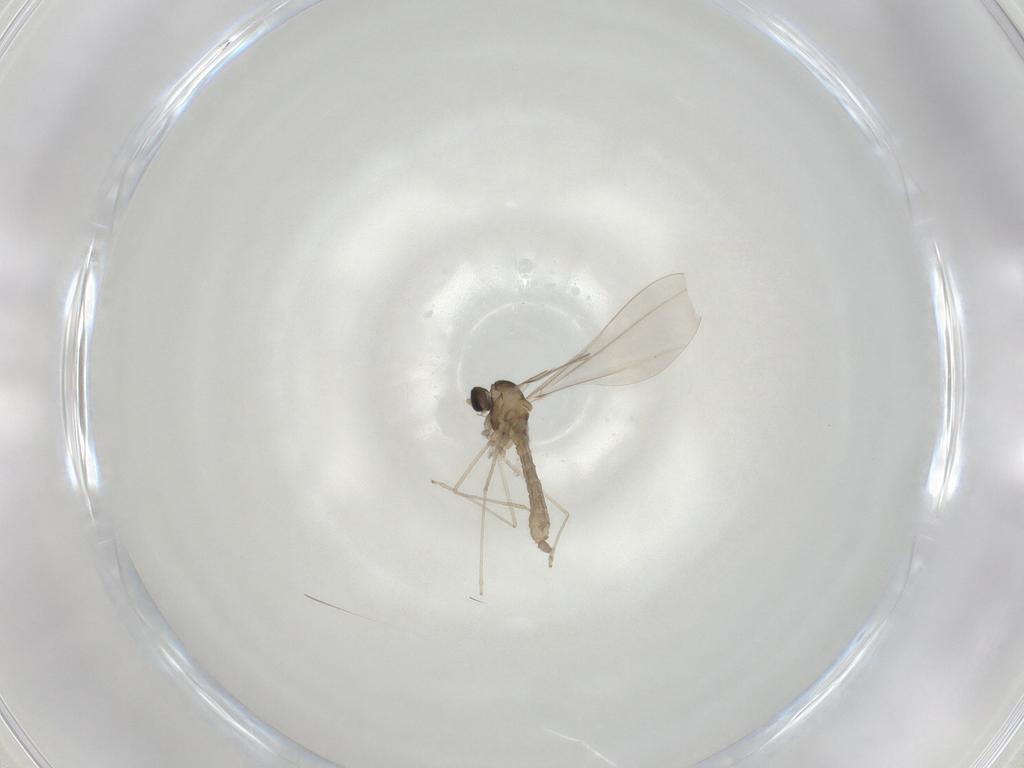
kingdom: Animalia
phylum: Arthropoda
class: Insecta
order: Diptera
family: Cecidomyiidae
